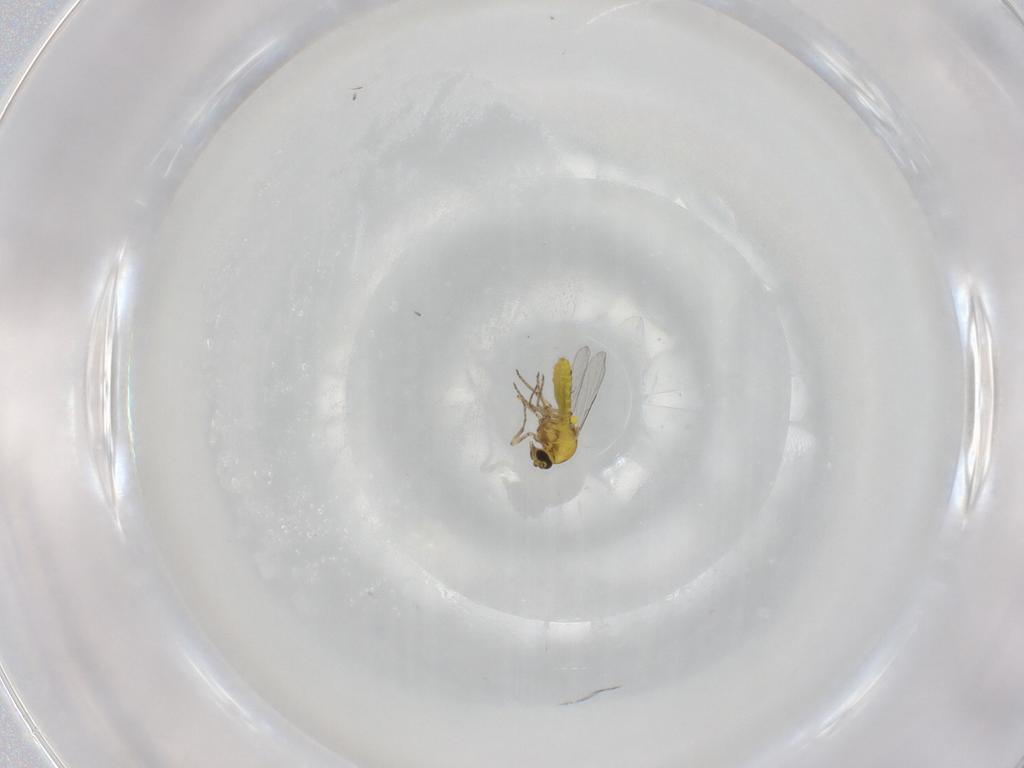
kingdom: Animalia
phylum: Arthropoda
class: Insecta
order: Diptera
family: Ceratopogonidae
